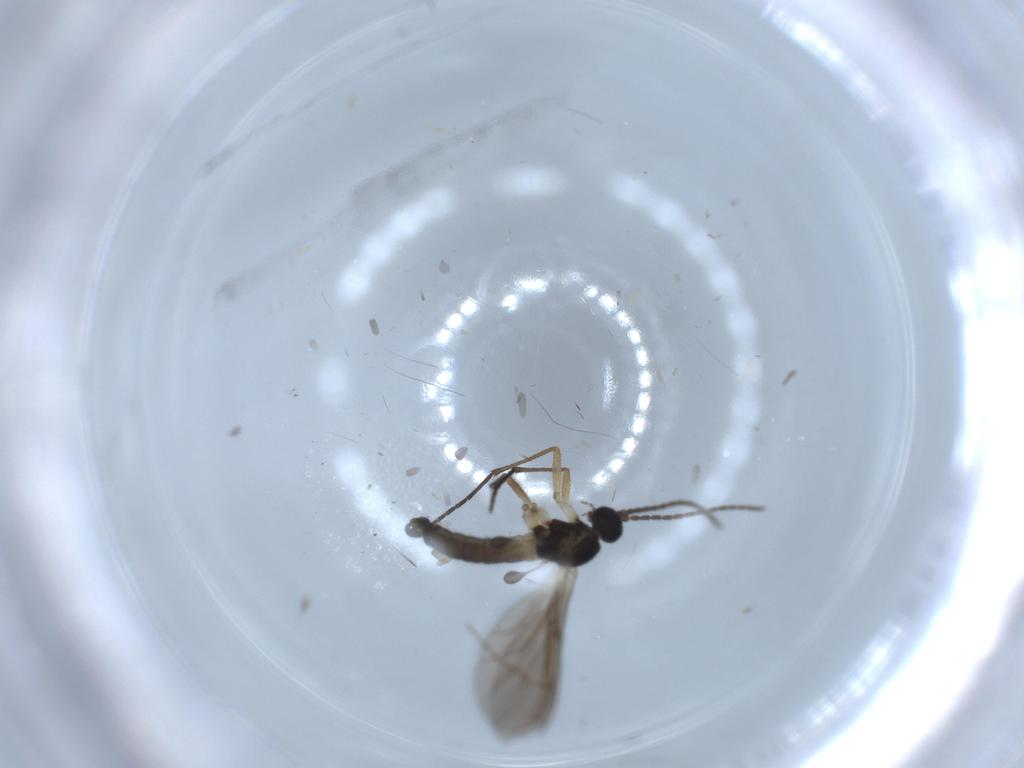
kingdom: Animalia
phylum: Arthropoda
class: Insecta
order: Diptera
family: Sciaridae
